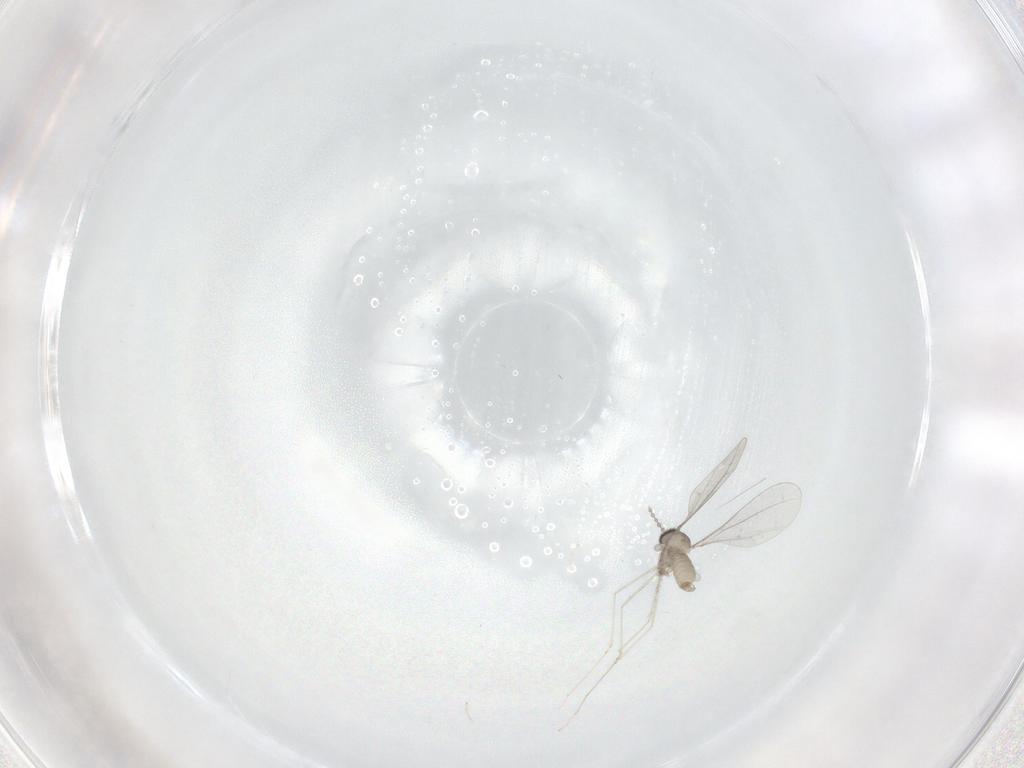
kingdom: Animalia
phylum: Arthropoda
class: Insecta
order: Diptera
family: Cecidomyiidae
